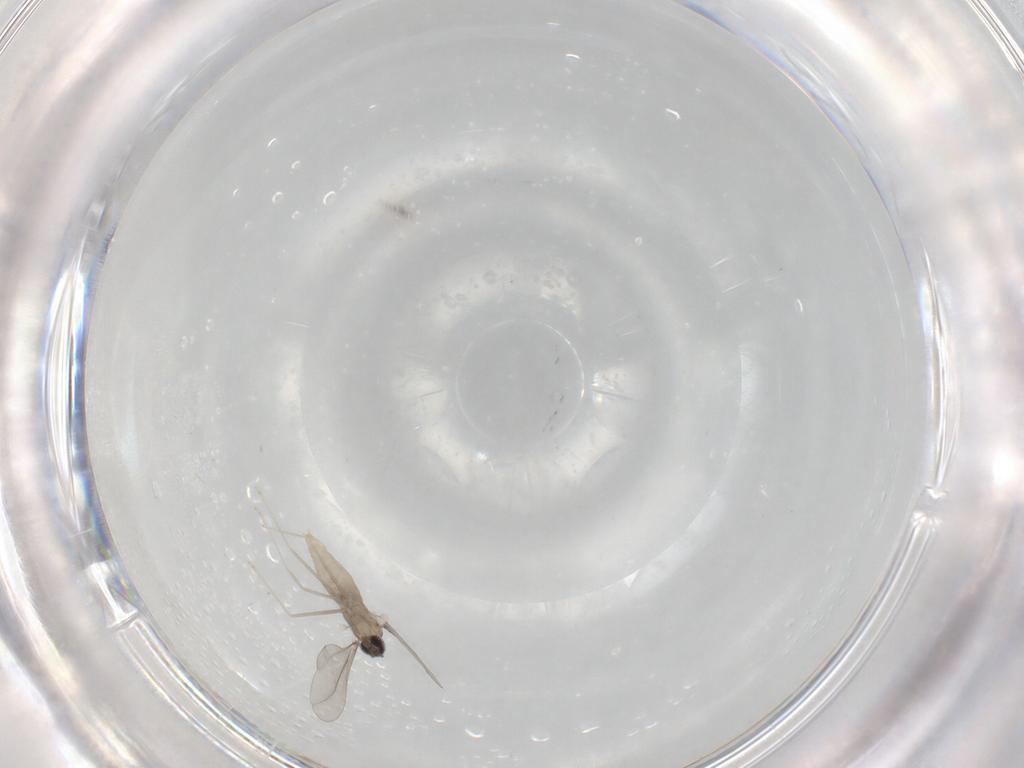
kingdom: Animalia
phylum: Arthropoda
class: Insecta
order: Diptera
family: Cecidomyiidae
